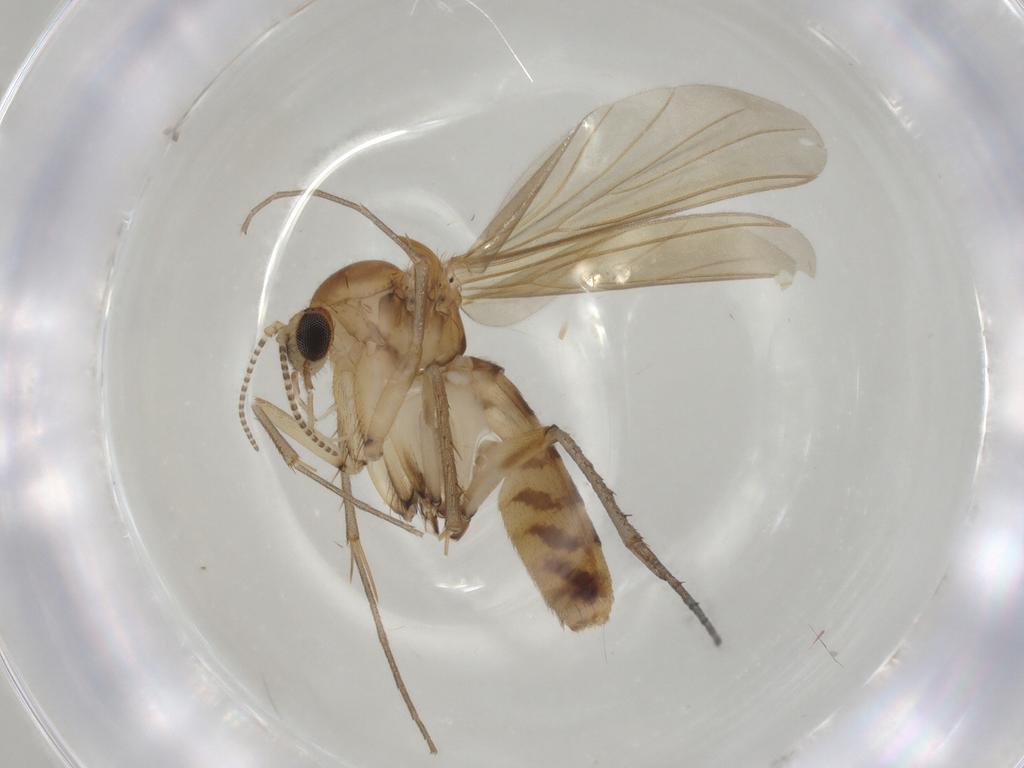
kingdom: Animalia
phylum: Arthropoda
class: Insecta
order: Diptera
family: Mycetophilidae
